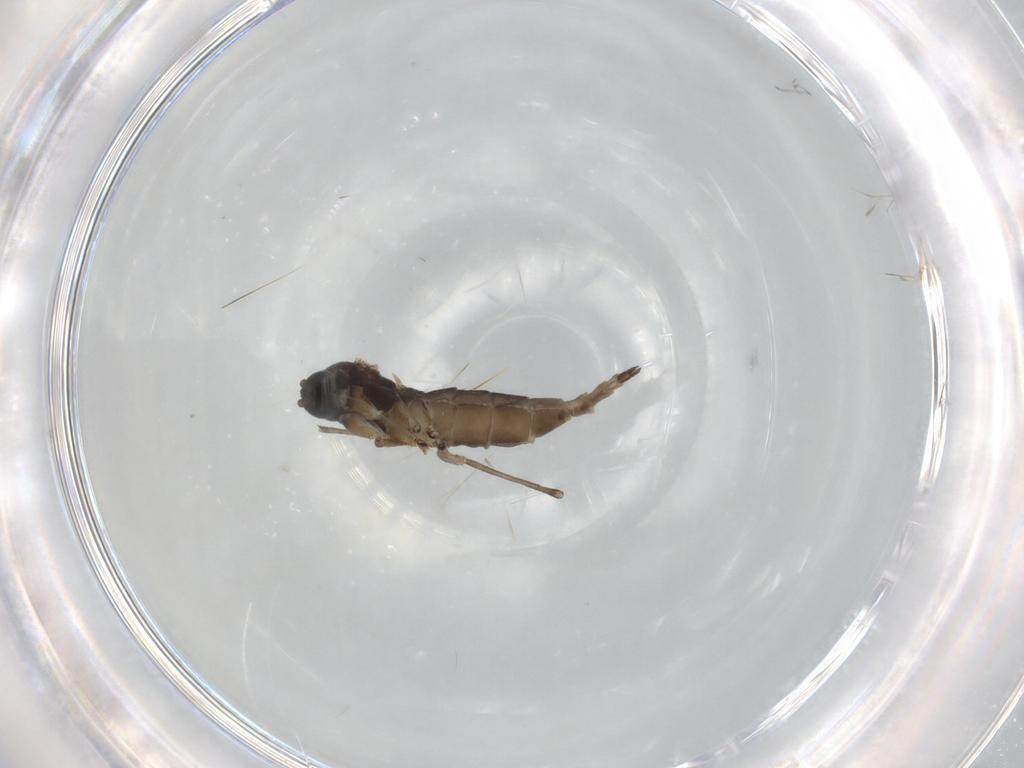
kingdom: Animalia
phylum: Arthropoda
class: Insecta
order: Diptera
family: Sciaridae
